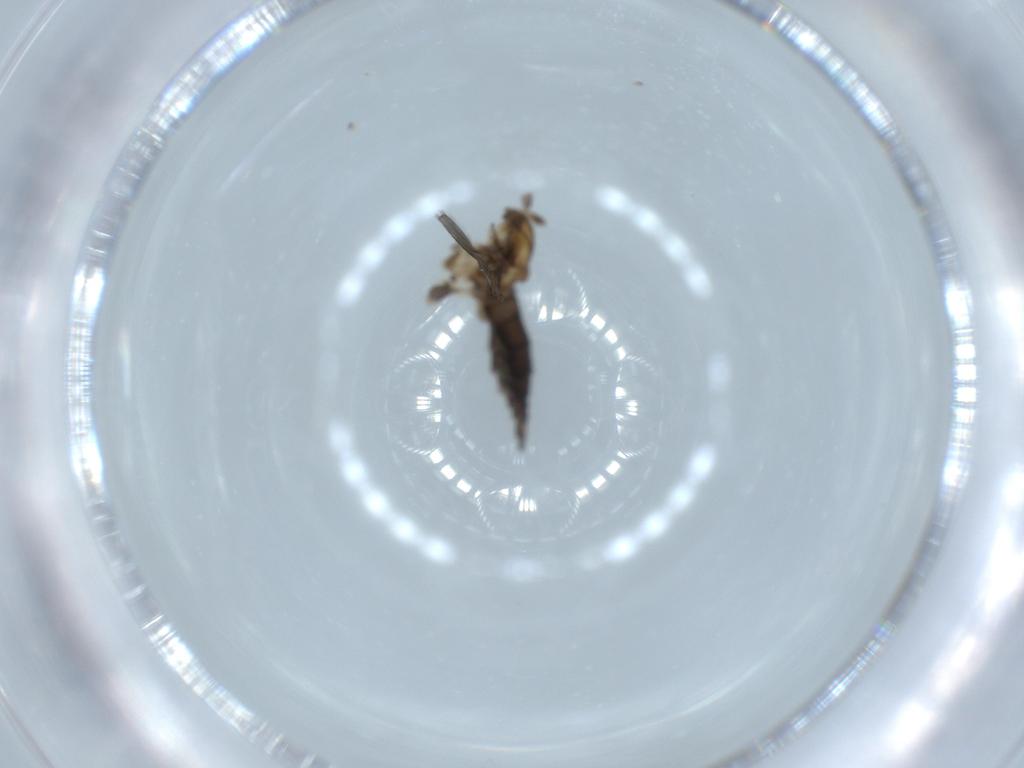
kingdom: Animalia
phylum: Arthropoda
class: Insecta
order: Diptera
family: Sciaridae
